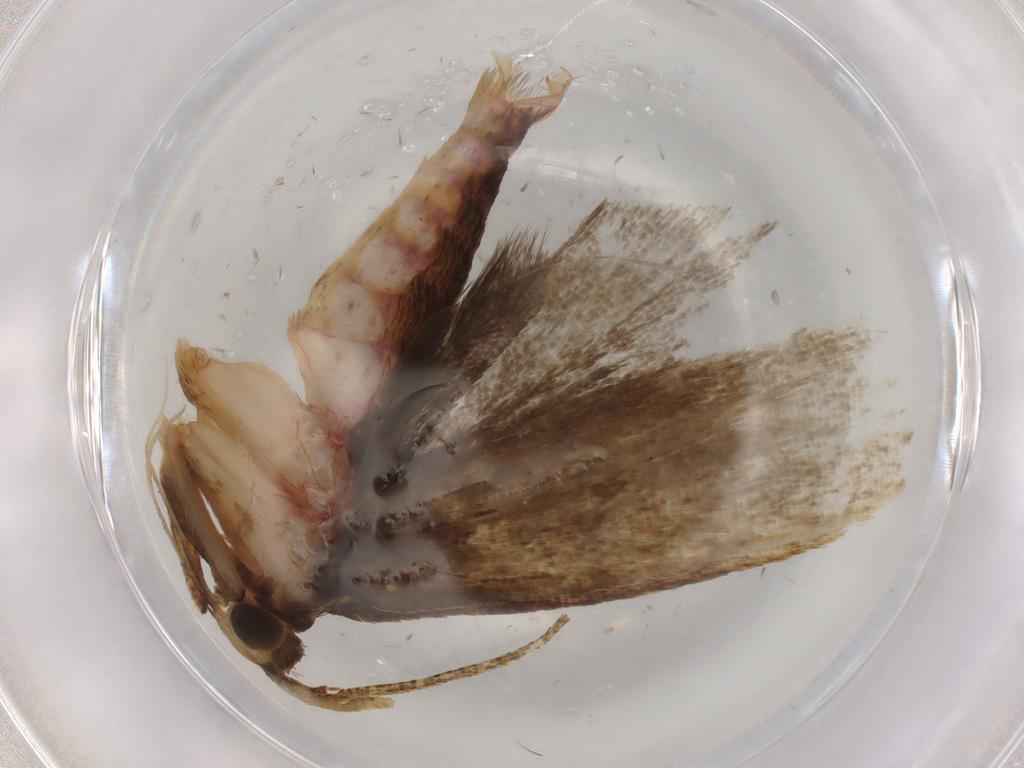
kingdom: Animalia
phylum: Arthropoda
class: Insecta
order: Lepidoptera
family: Autostichidae
